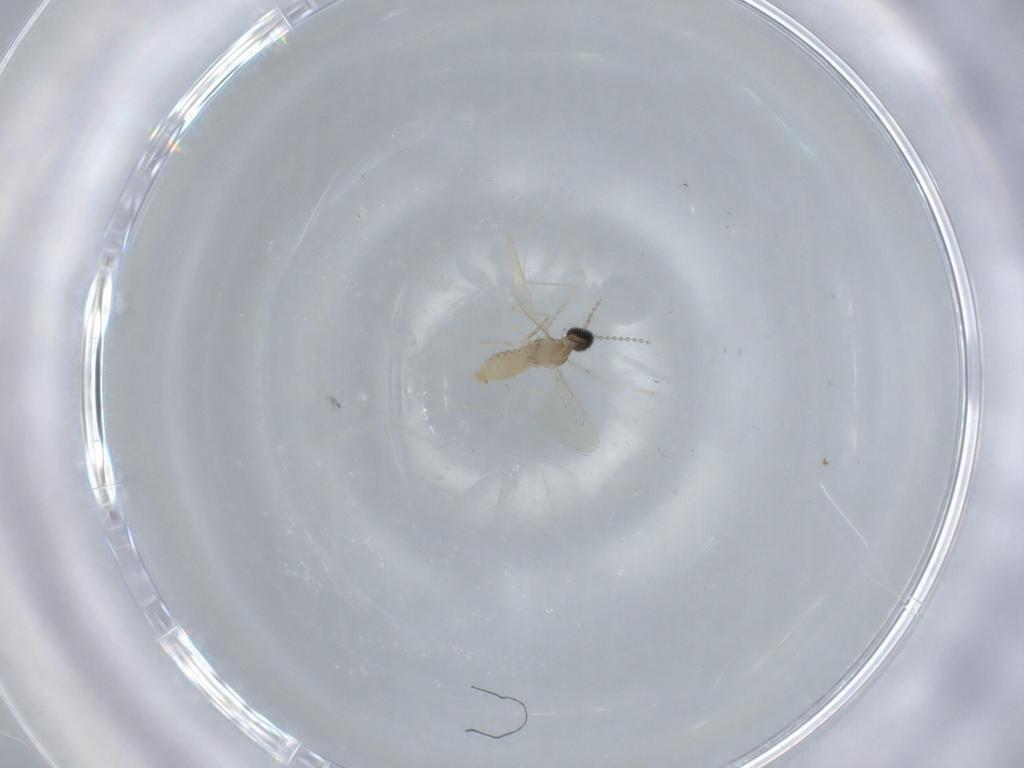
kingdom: Animalia
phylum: Arthropoda
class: Insecta
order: Diptera
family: Cecidomyiidae
